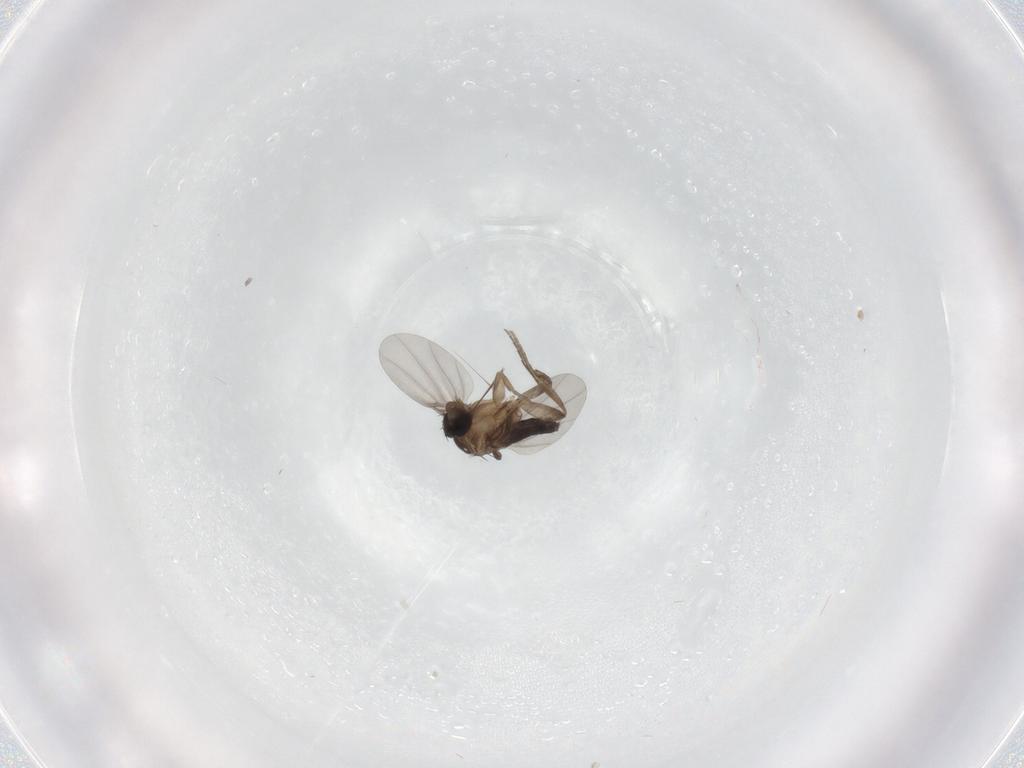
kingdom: Animalia
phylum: Arthropoda
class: Insecta
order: Diptera
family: Phoridae
